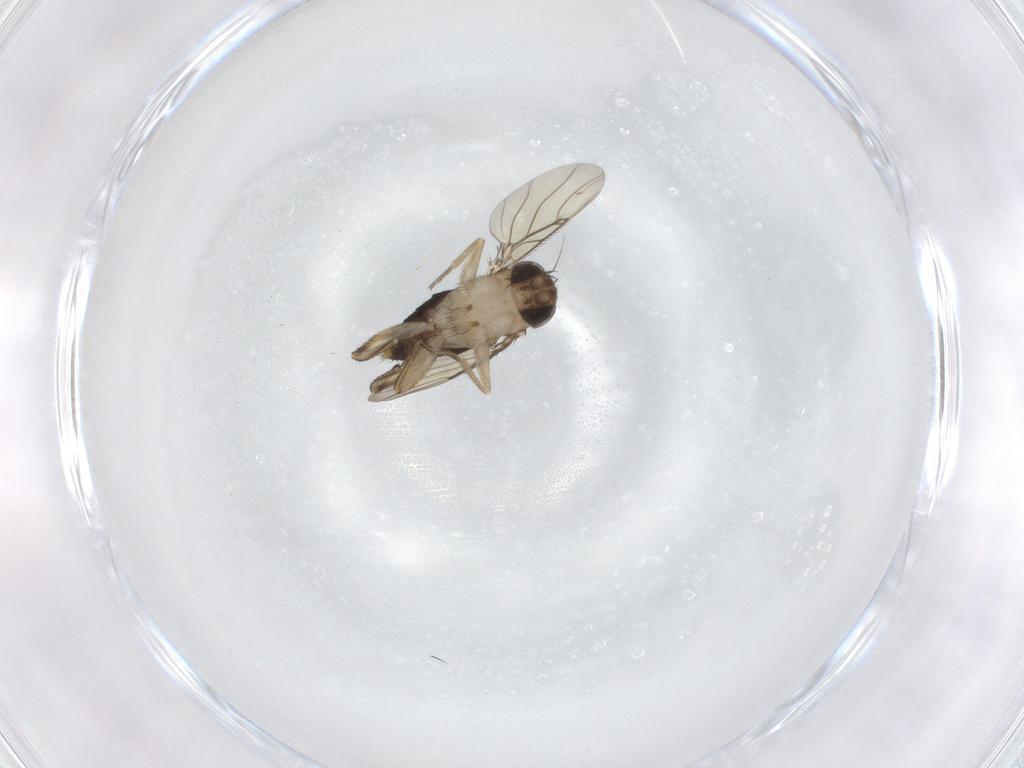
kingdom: Animalia
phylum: Arthropoda
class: Insecta
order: Diptera
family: Phoridae
